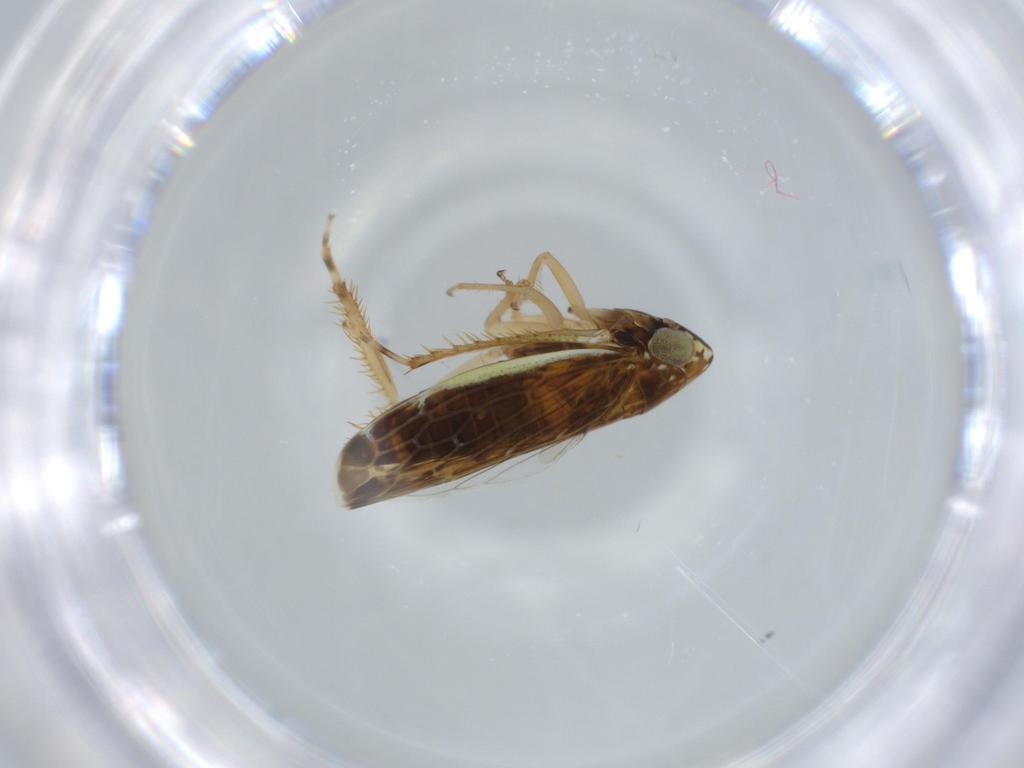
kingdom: Animalia
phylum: Arthropoda
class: Insecta
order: Hemiptera
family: Cicadellidae
